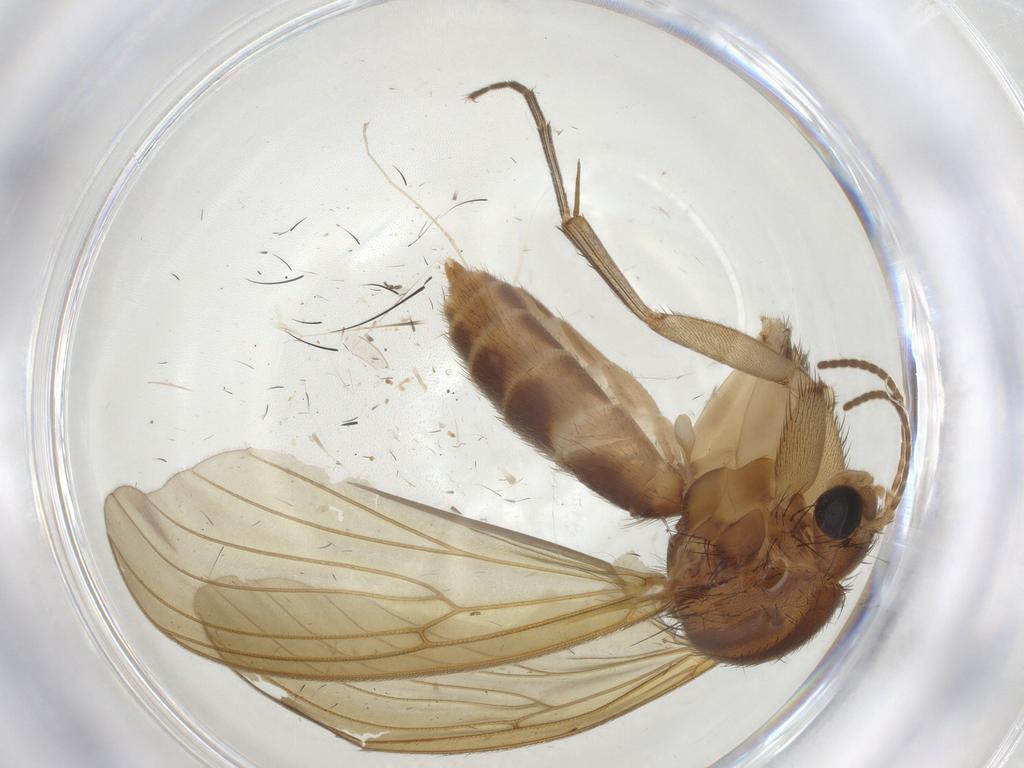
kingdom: Animalia
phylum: Arthropoda
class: Insecta
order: Diptera
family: Phoridae
